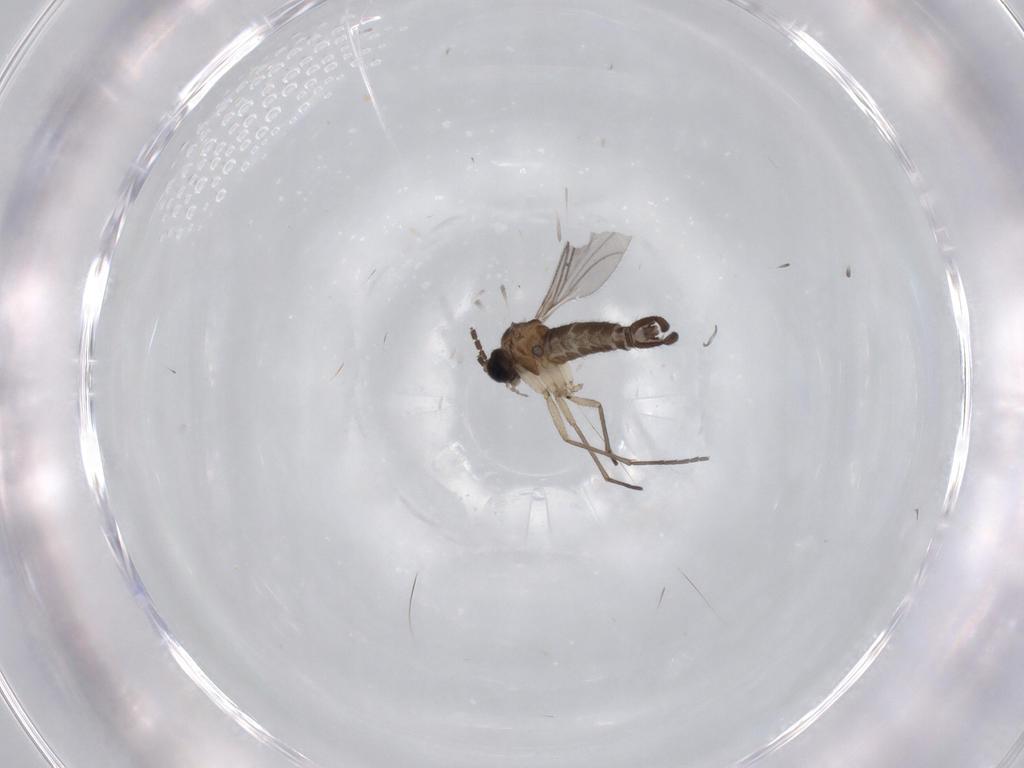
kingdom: Animalia
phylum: Arthropoda
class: Insecta
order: Diptera
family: Sciaridae
